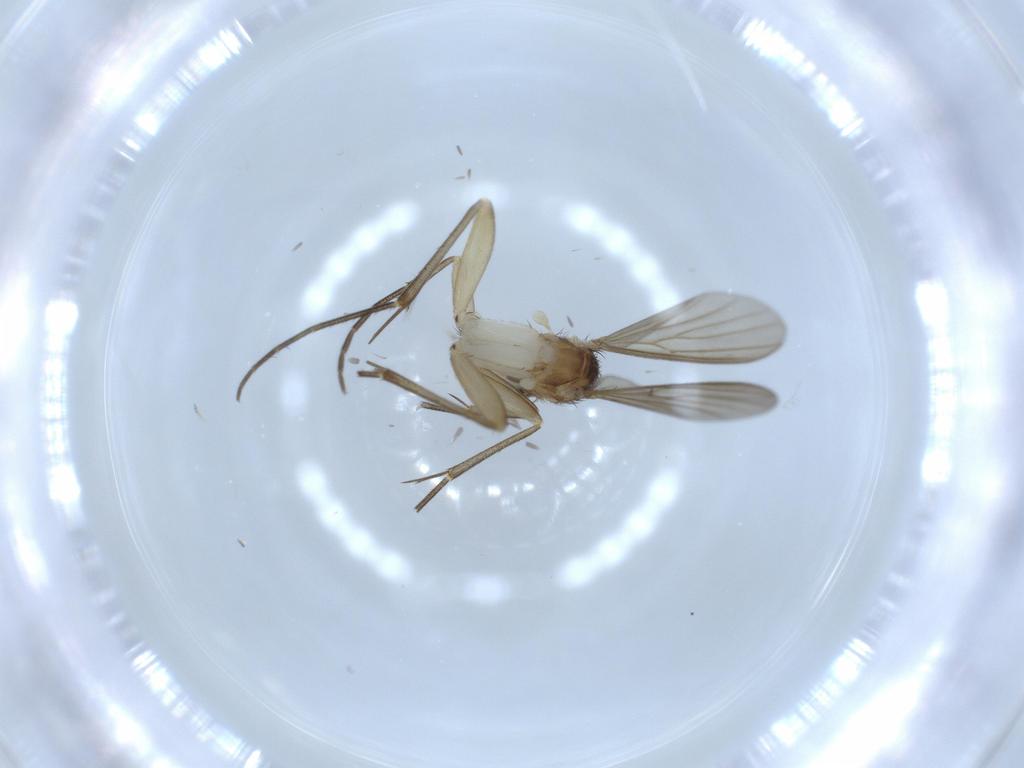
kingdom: Animalia
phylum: Arthropoda
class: Insecta
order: Diptera
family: Mycetophilidae
